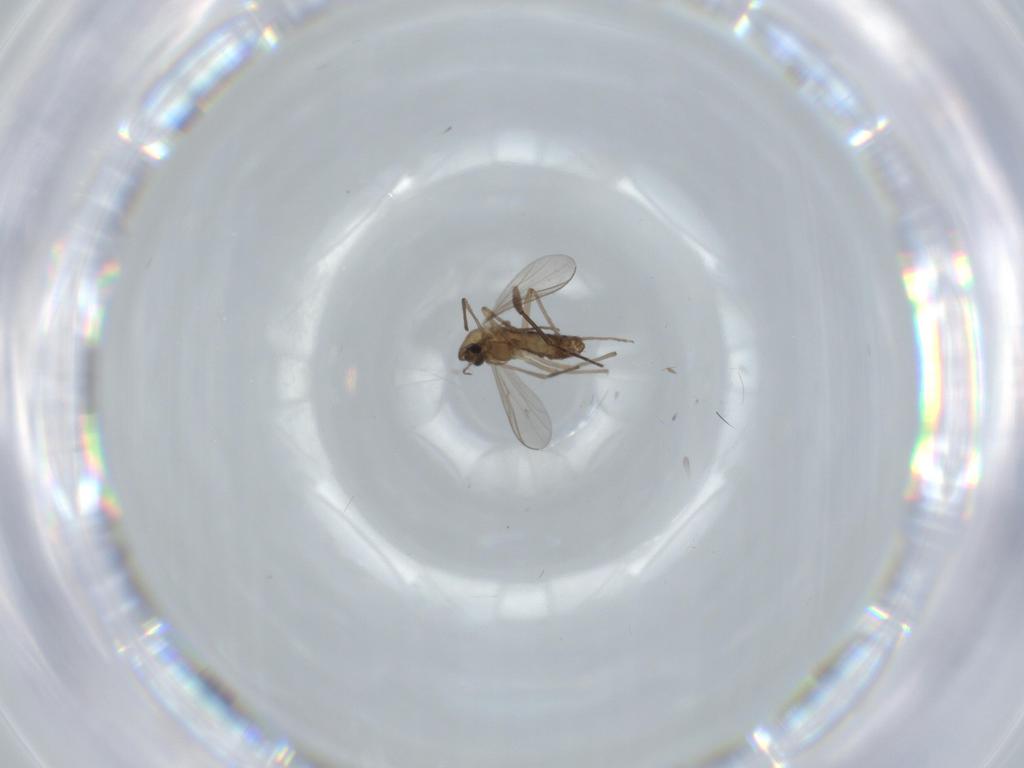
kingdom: Animalia
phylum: Arthropoda
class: Insecta
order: Diptera
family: Chironomidae
